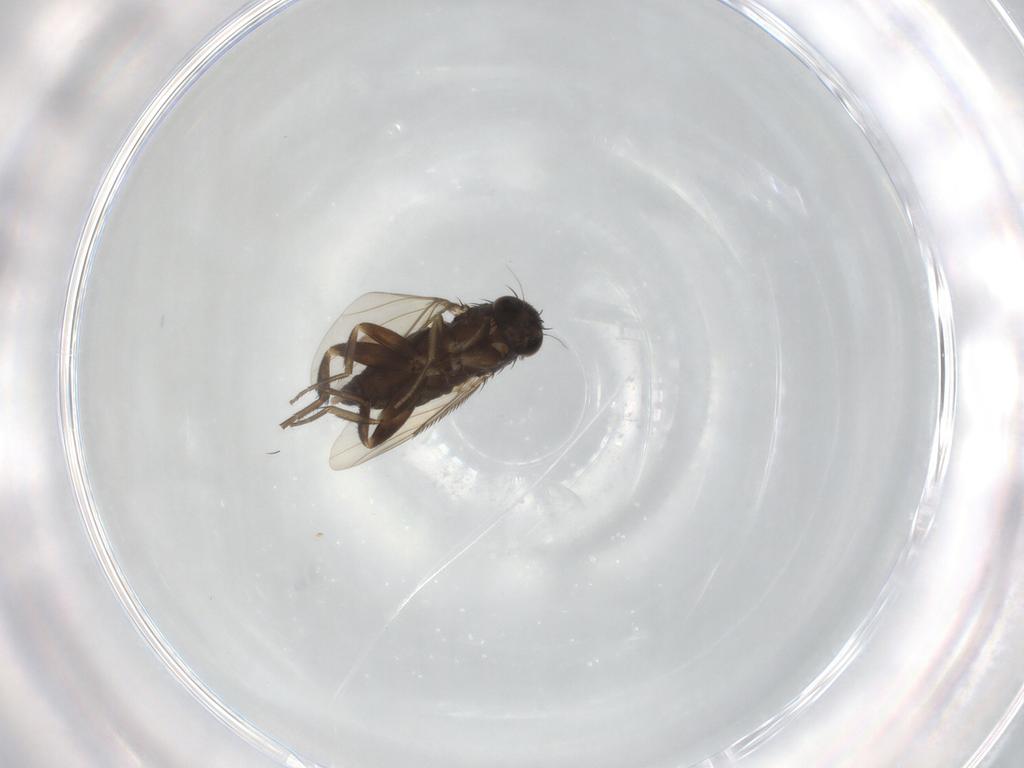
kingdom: Animalia
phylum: Arthropoda
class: Insecta
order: Diptera
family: Phoridae
